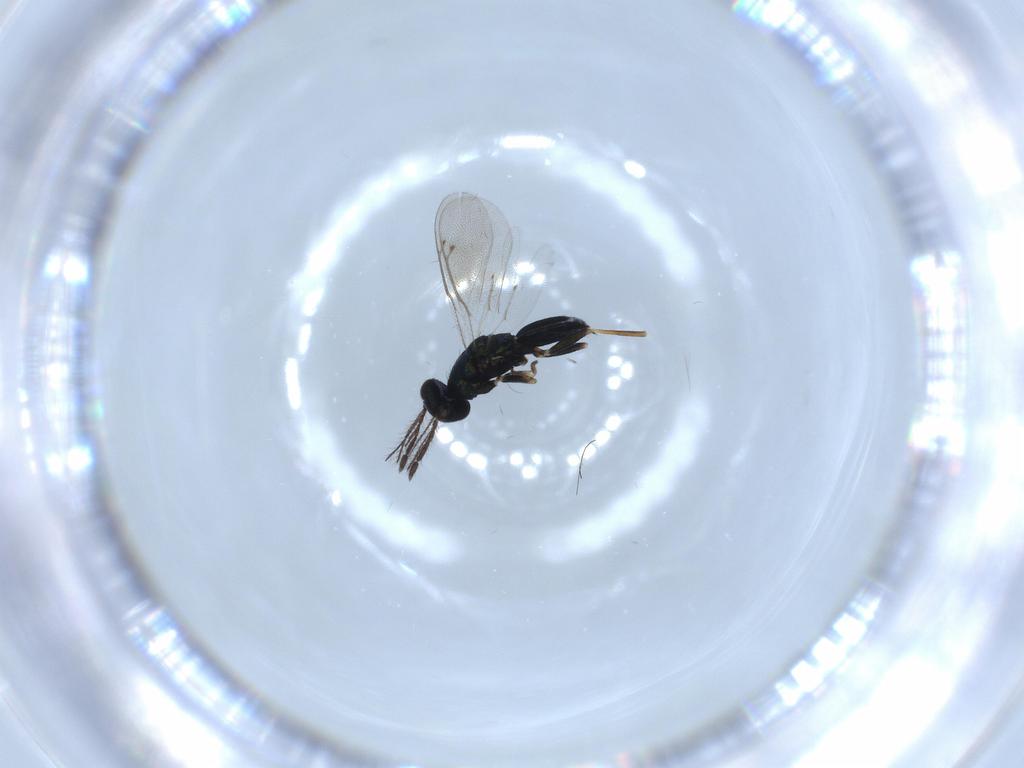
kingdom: Animalia
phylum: Arthropoda
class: Insecta
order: Hymenoptera
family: Eulophidae
